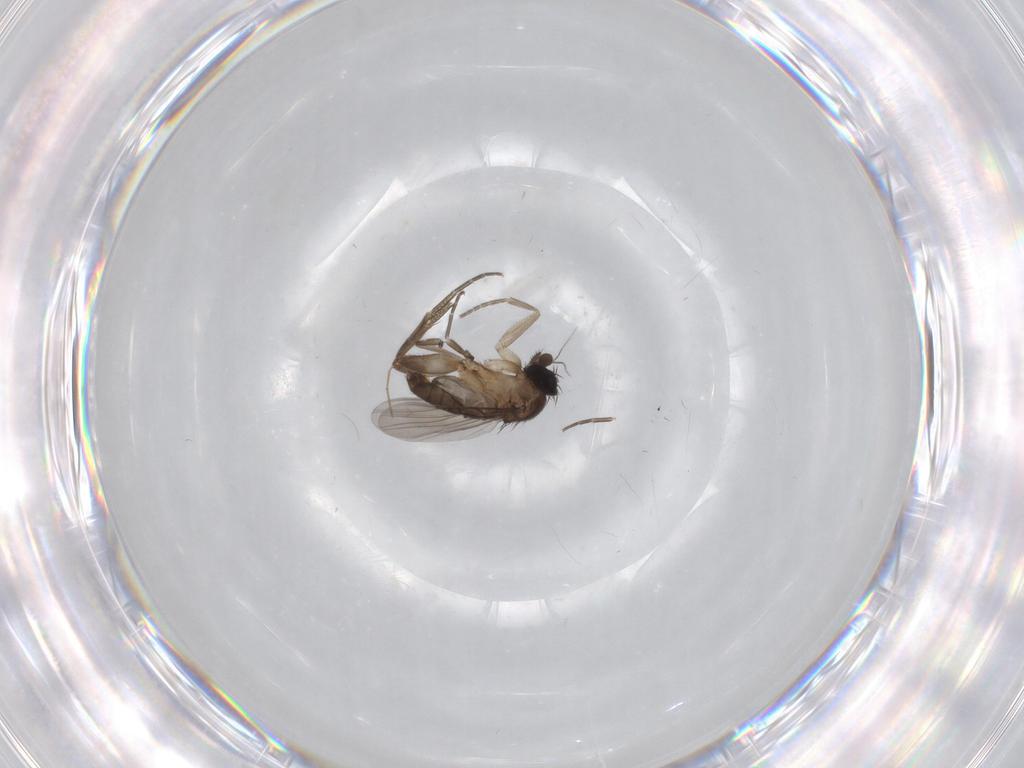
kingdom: Animalia
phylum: Arthropoda
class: Insecta
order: Diptera
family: Phoridae
